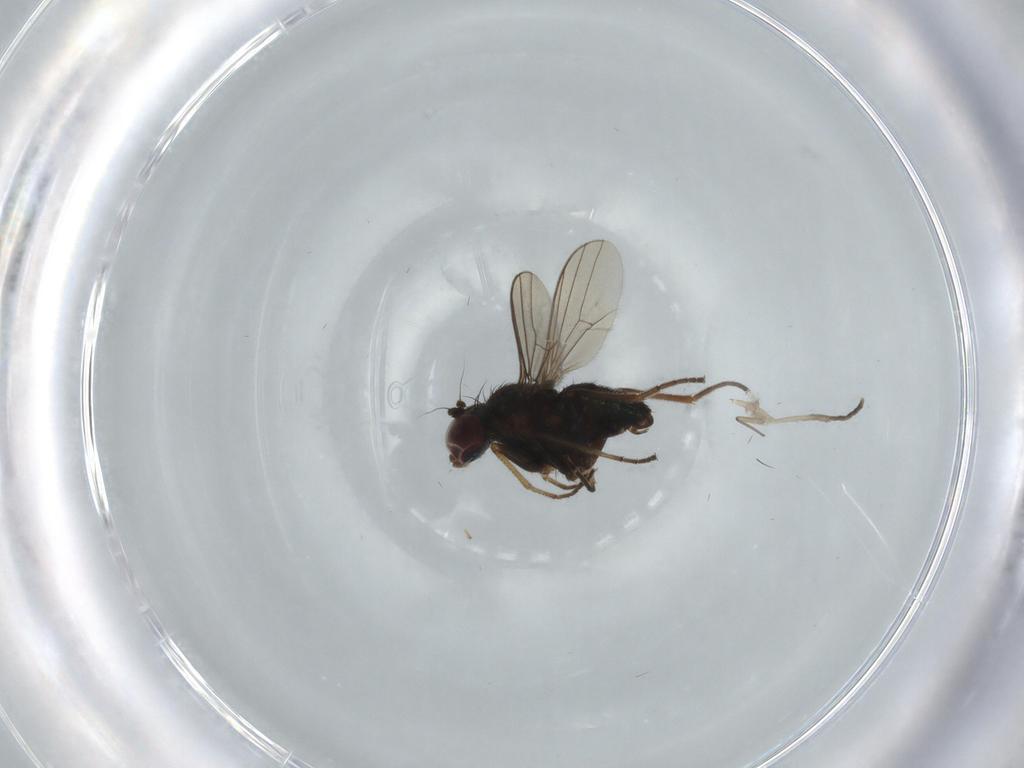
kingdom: Animalia
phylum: Arthropoda
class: Insecta
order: Diptera
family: Dolichopodidae
